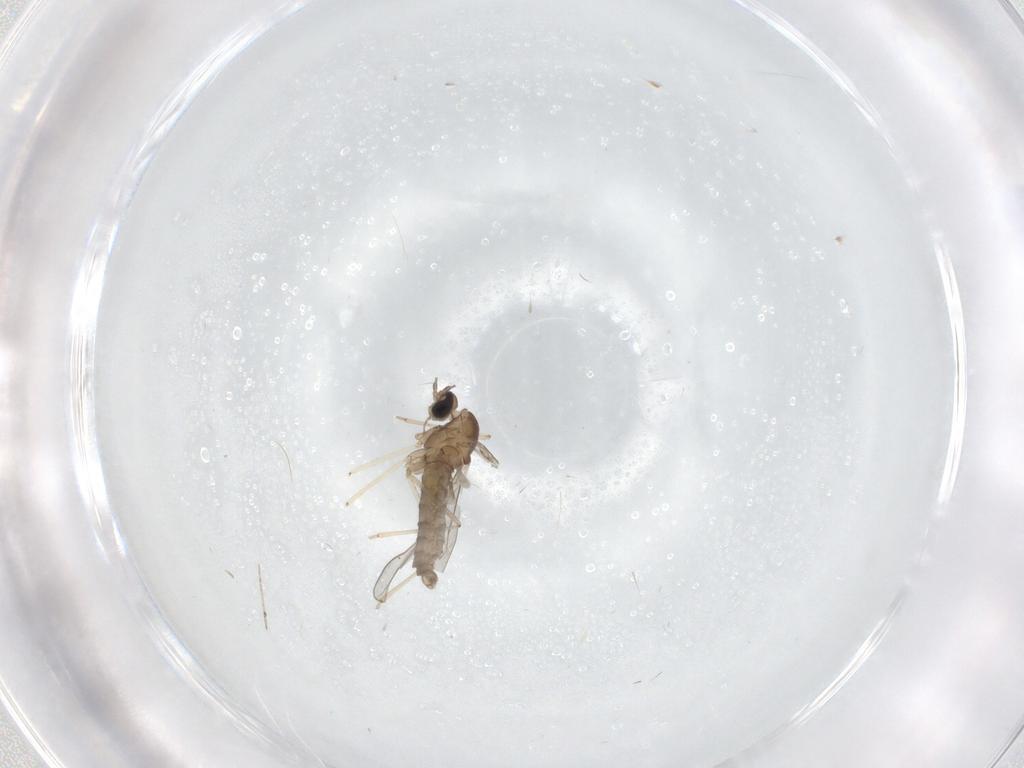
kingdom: Animalia
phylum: Arthropoda
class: Insecta
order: Diptera
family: Cecidomyiidae
